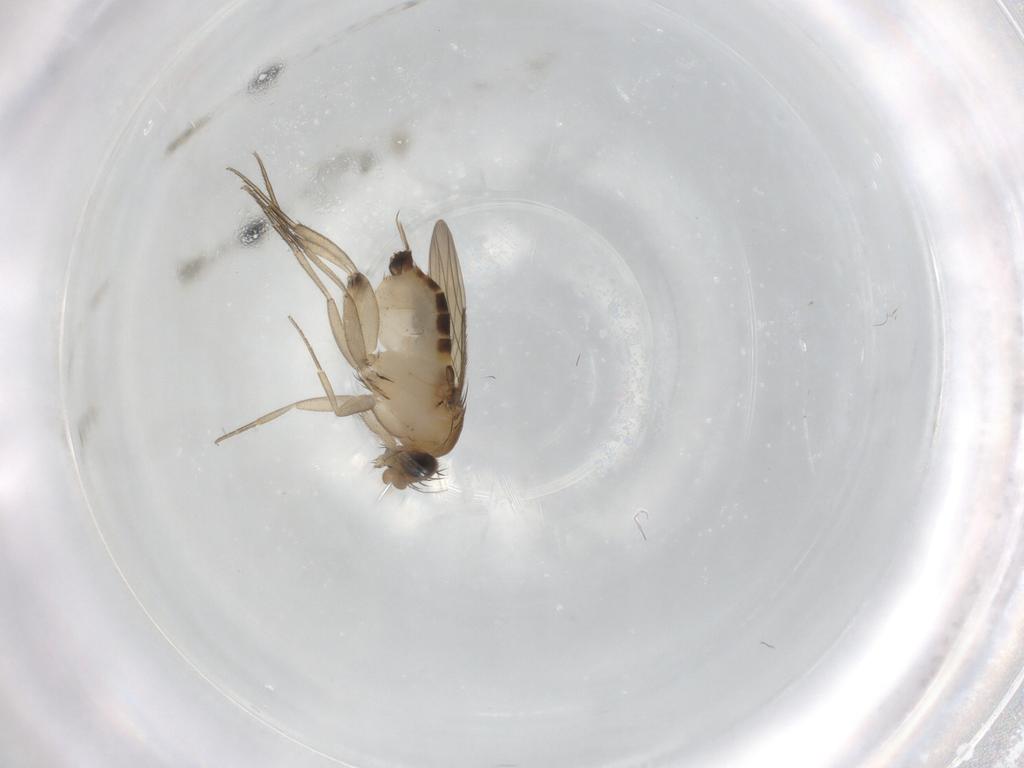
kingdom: Animalia
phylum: Arthropoda
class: Insecta
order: Diptera
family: Phoridae
